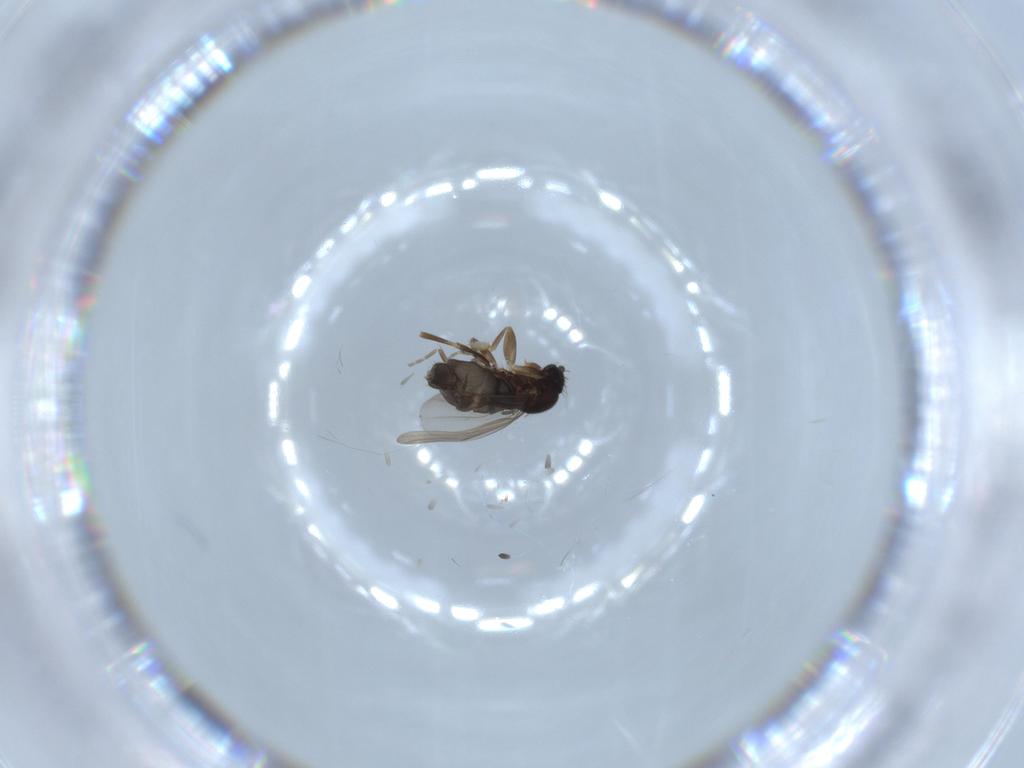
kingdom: Animalia
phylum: Arthropoda
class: Insecta
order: Diptera
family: Phoridae
